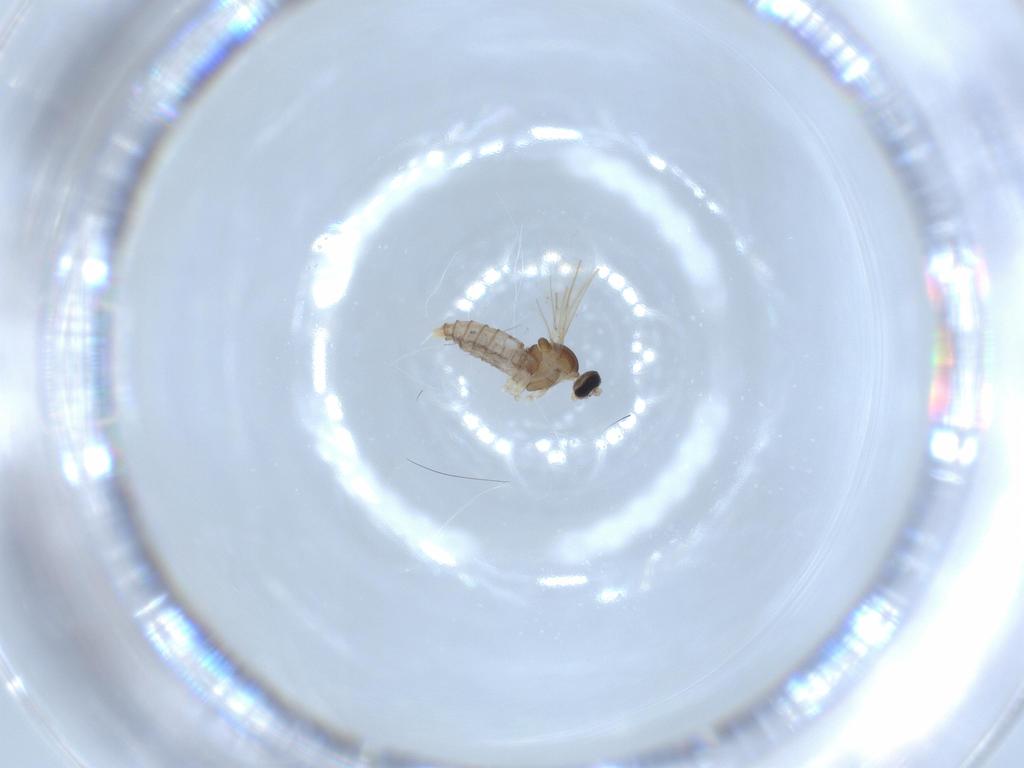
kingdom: Animalia
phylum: Arthropoda
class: Insecta
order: Diptera
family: Cecidomyiidae
